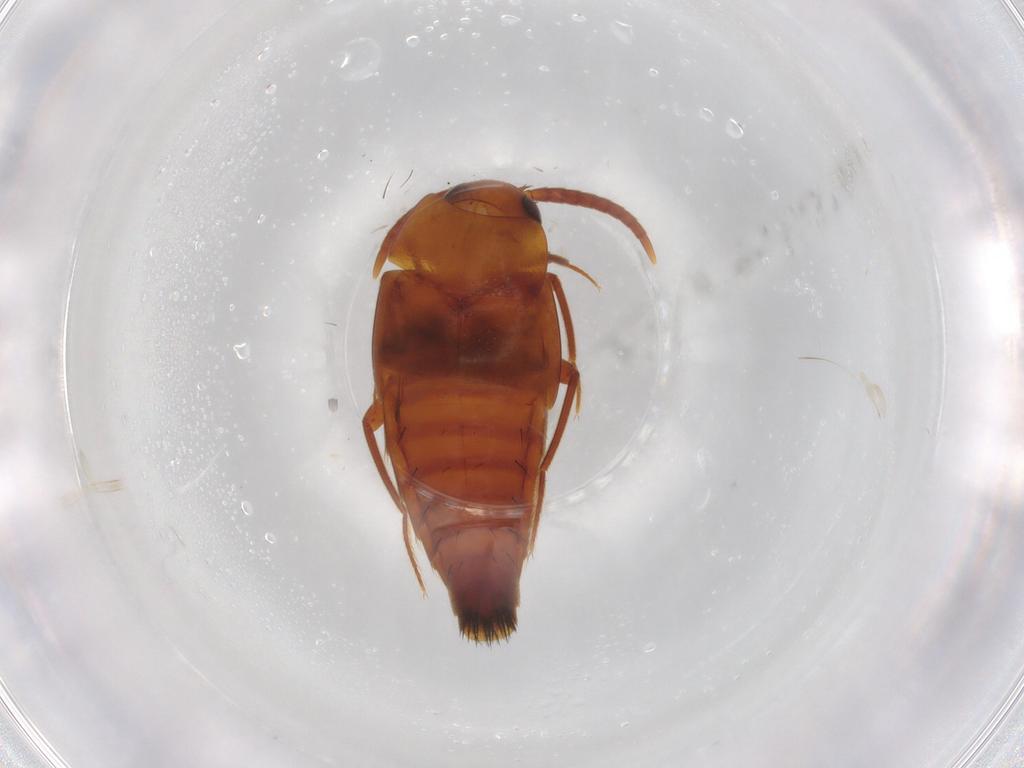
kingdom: Animalia
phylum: Arthropoda
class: Insecta
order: Coleoptera
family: Staphylinidae
